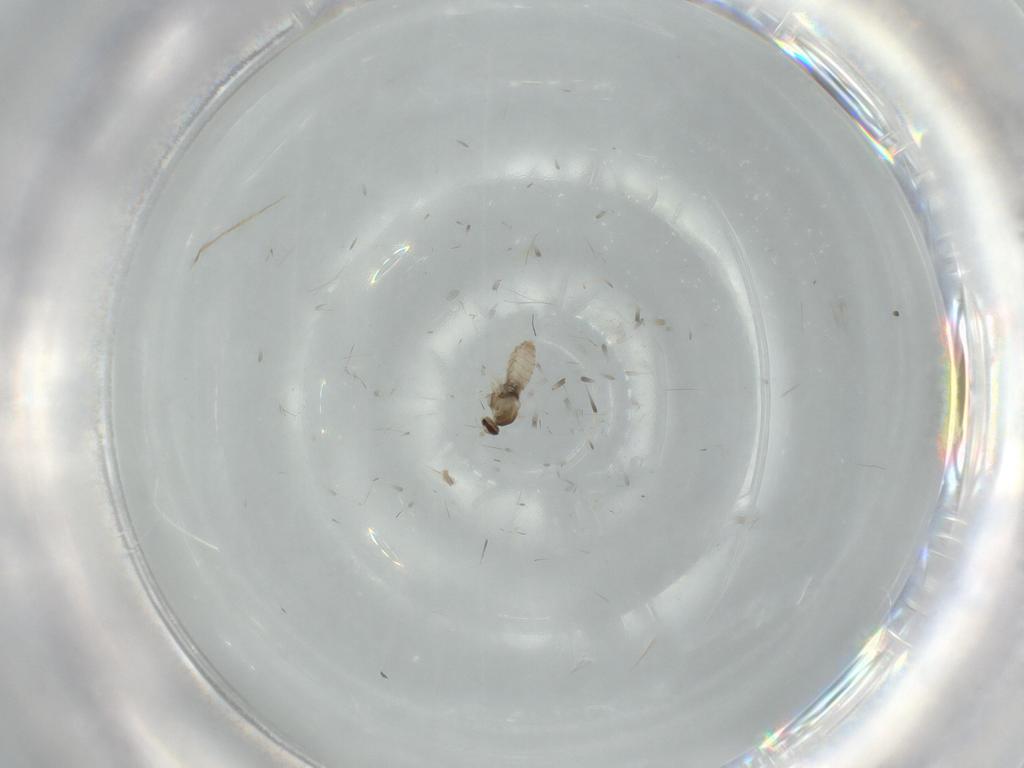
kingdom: Animalia
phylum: Arthropoda
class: Insecta
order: Diptera
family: Cecidomyiidae
